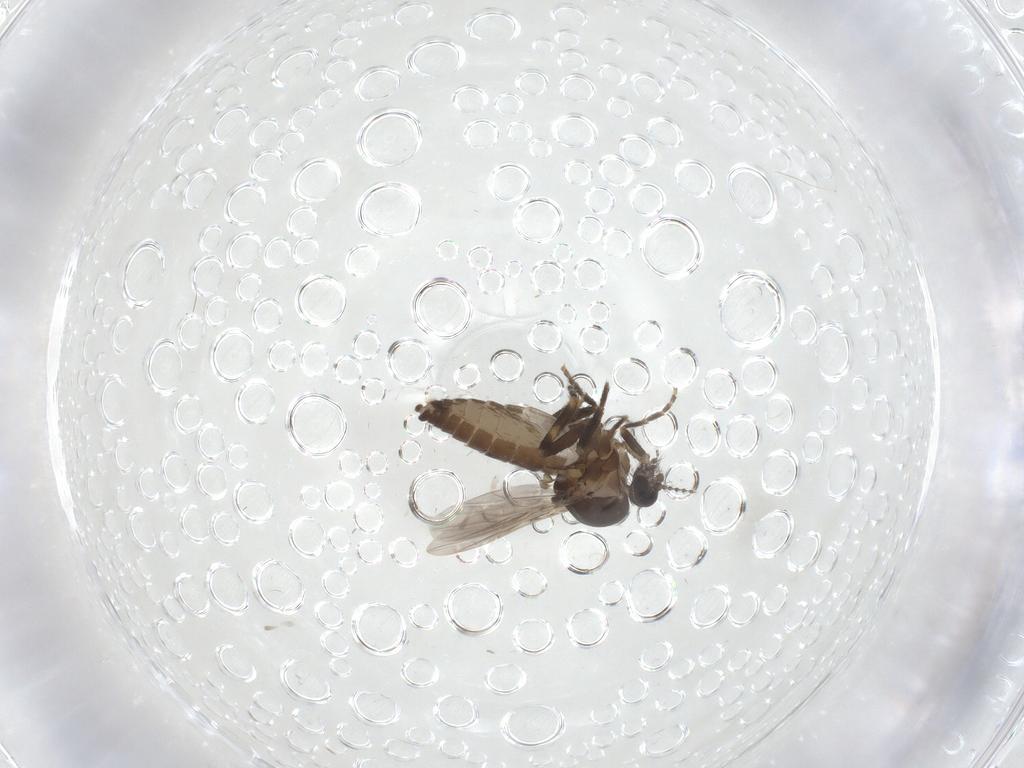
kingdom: Animalia
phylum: Arthropoda
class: Insecta
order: Diptera
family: Ceratopogonidae
